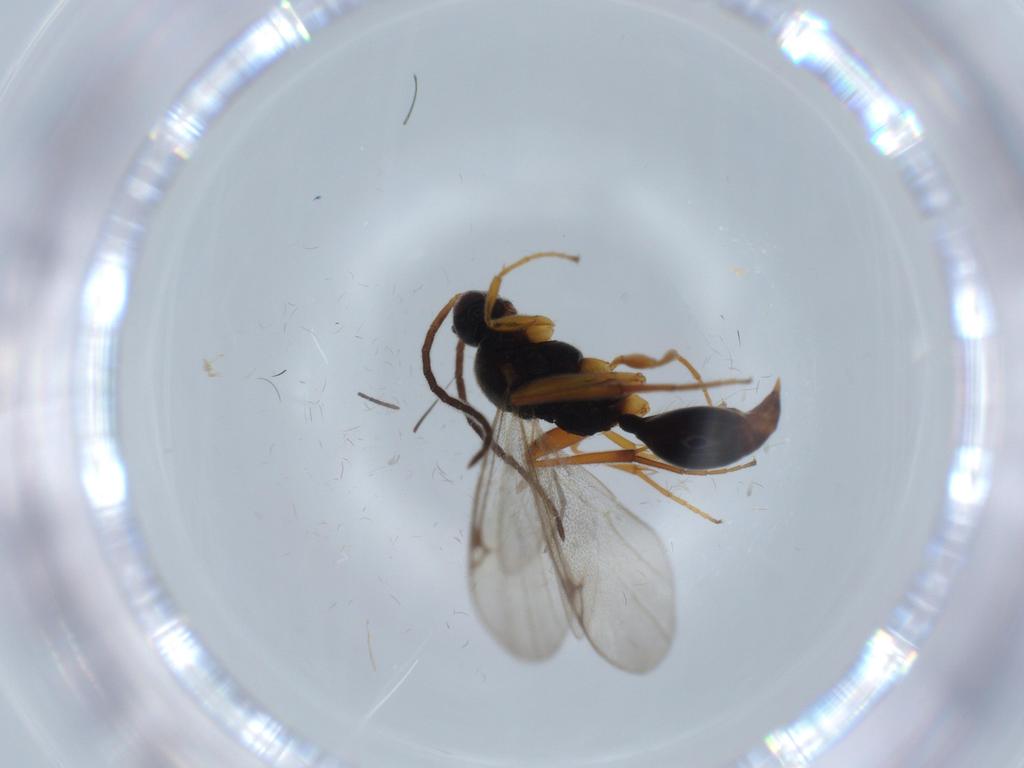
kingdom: Animalia
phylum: Arthropoda
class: Insecta
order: Hymenoptera
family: Proctotrupidae
